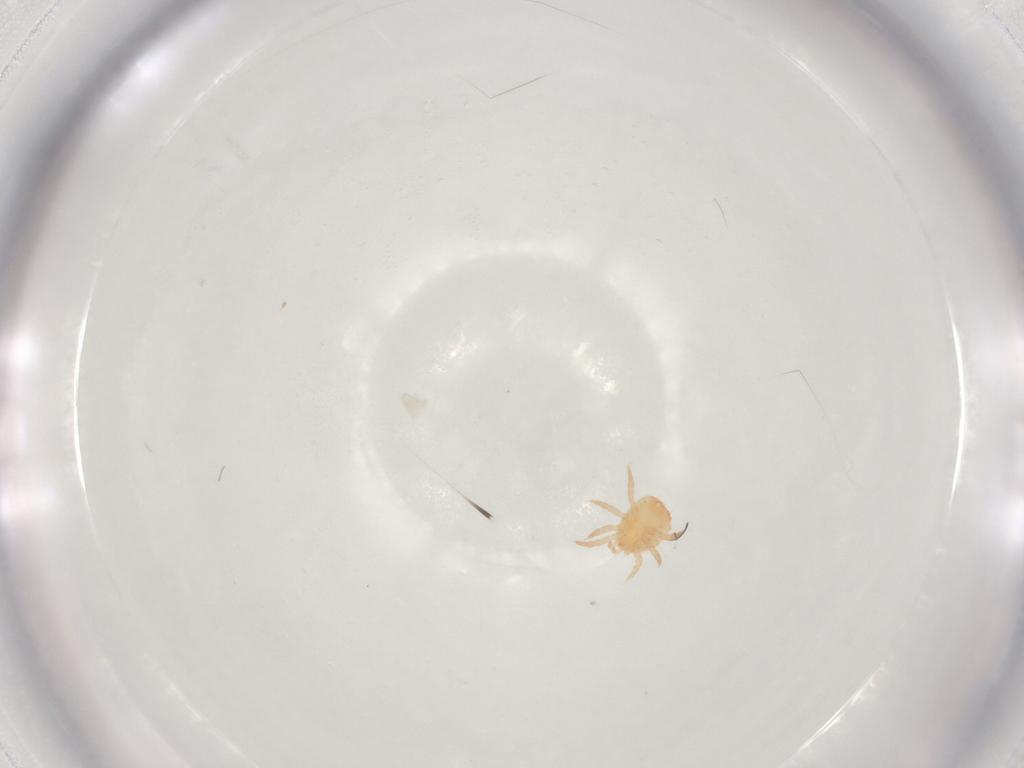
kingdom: Animalia
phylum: Arthropoda
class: Arachnida
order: Mesostigmata
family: Sejidae
